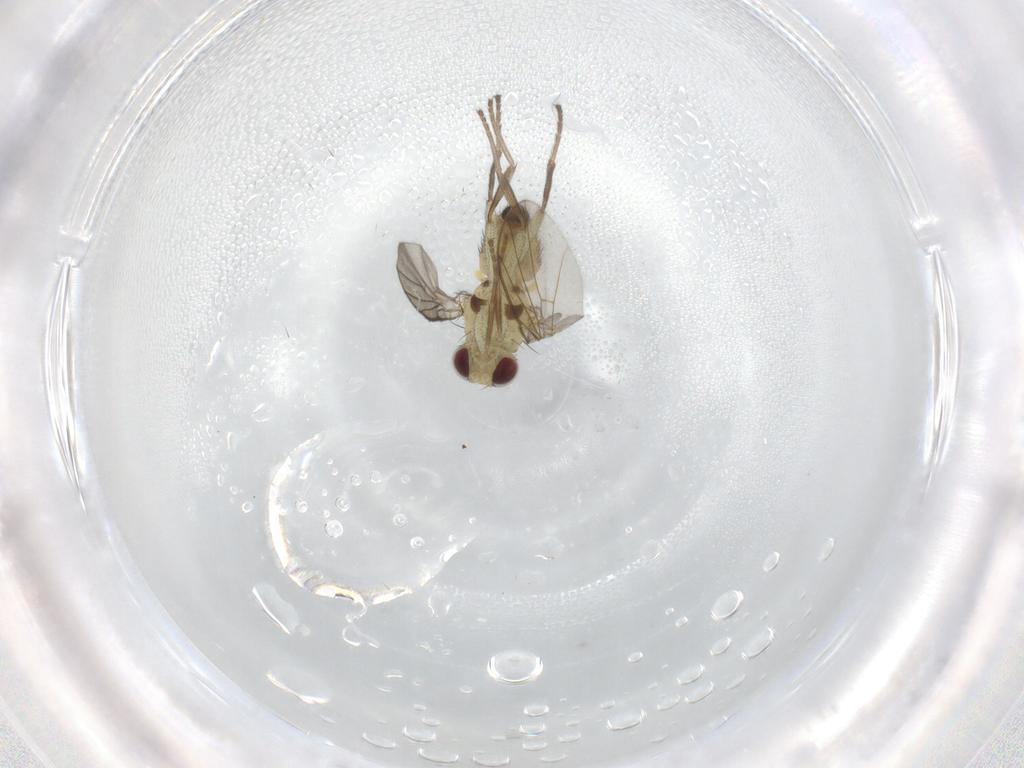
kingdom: Animalia
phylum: Arthropoda
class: Insecta
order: Diptera
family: Agromyzidae
